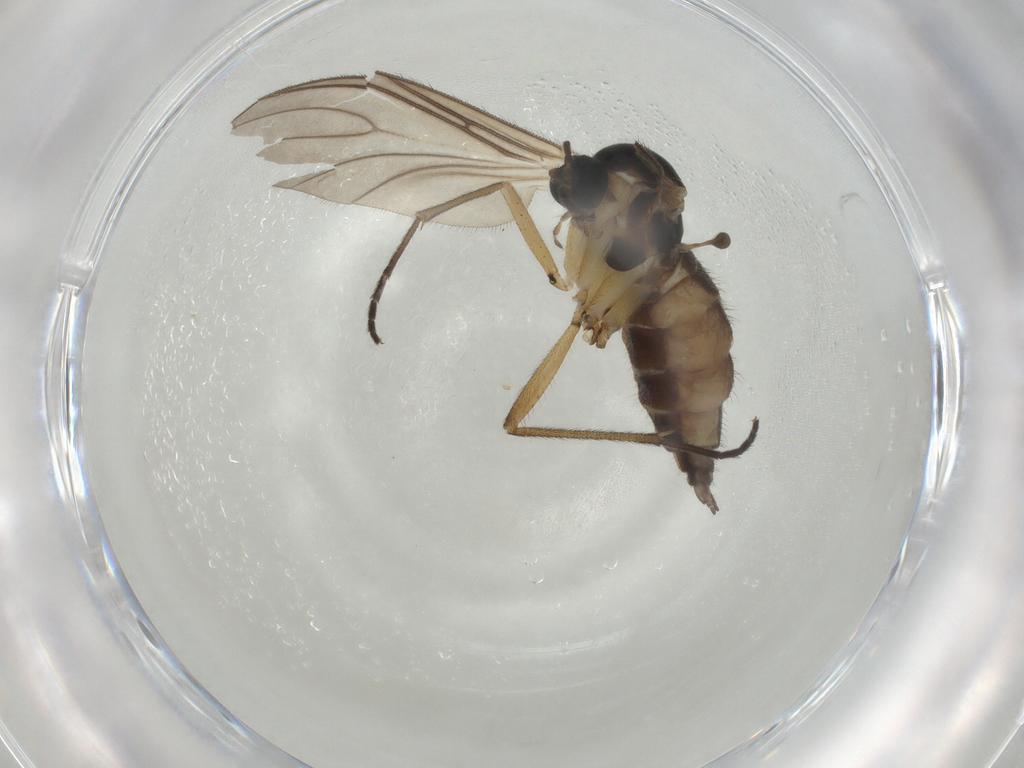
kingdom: Animalia
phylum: Arthropoda
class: Insecta
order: Diptera
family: Sciaridae
